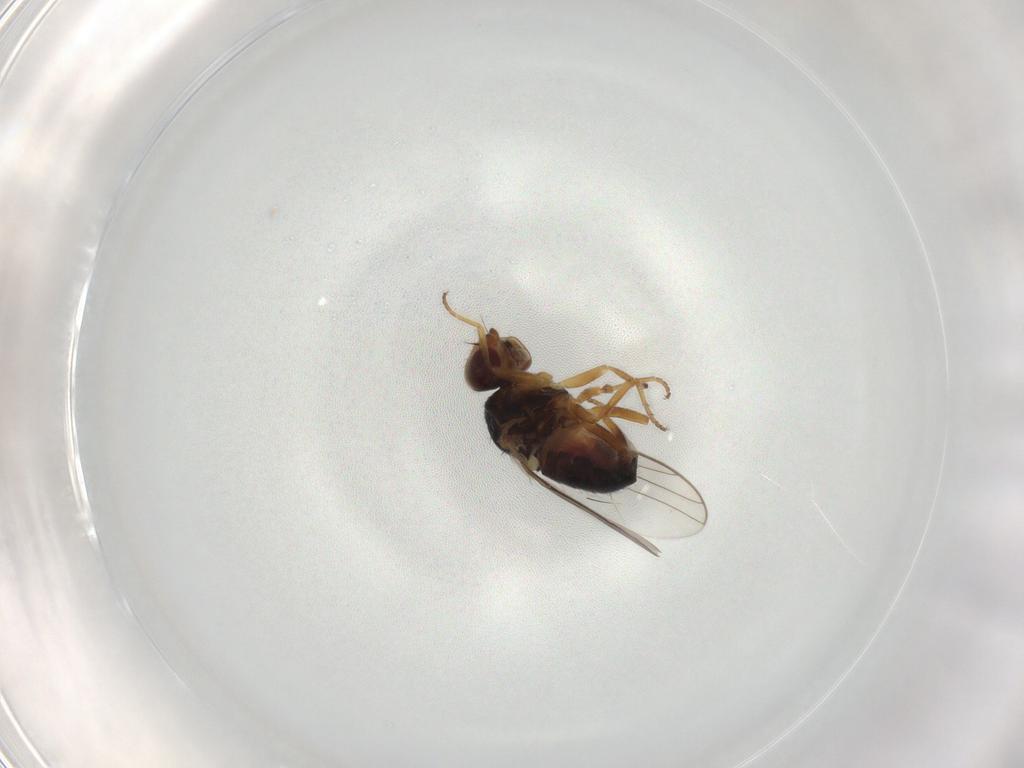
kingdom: Animalia
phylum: Arthropoda
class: Insecta
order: Diptera
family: Chloropidae
